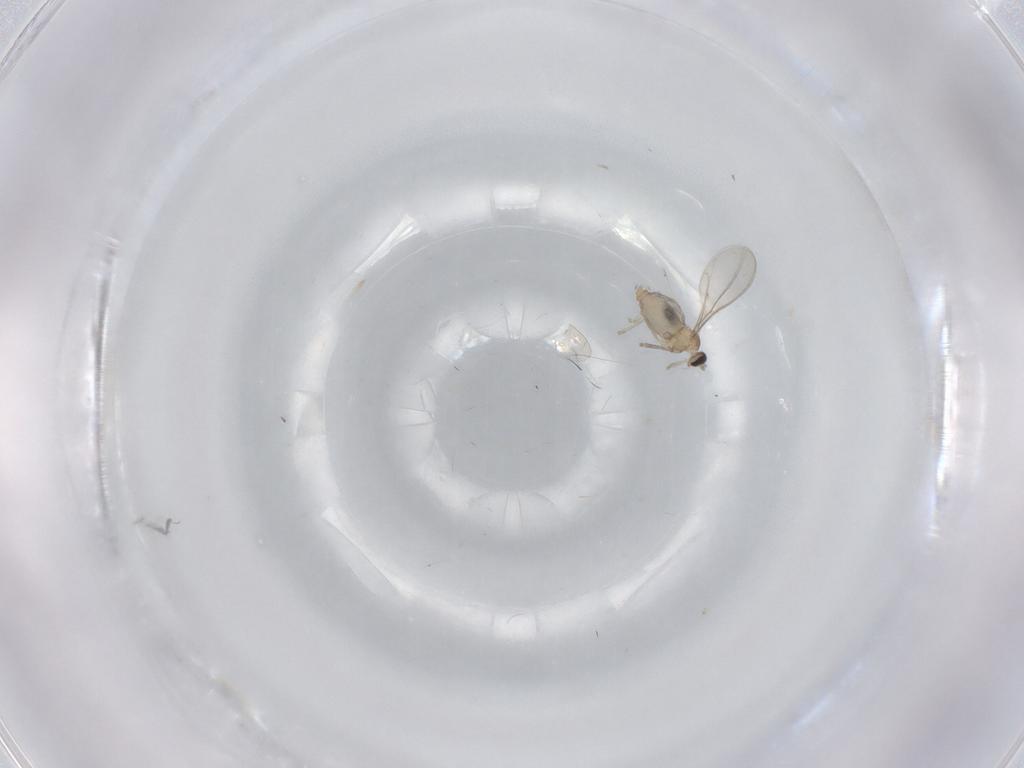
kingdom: Animalia
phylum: Arthropoda
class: Insecta
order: Diptera
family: Cecidomyiidae
